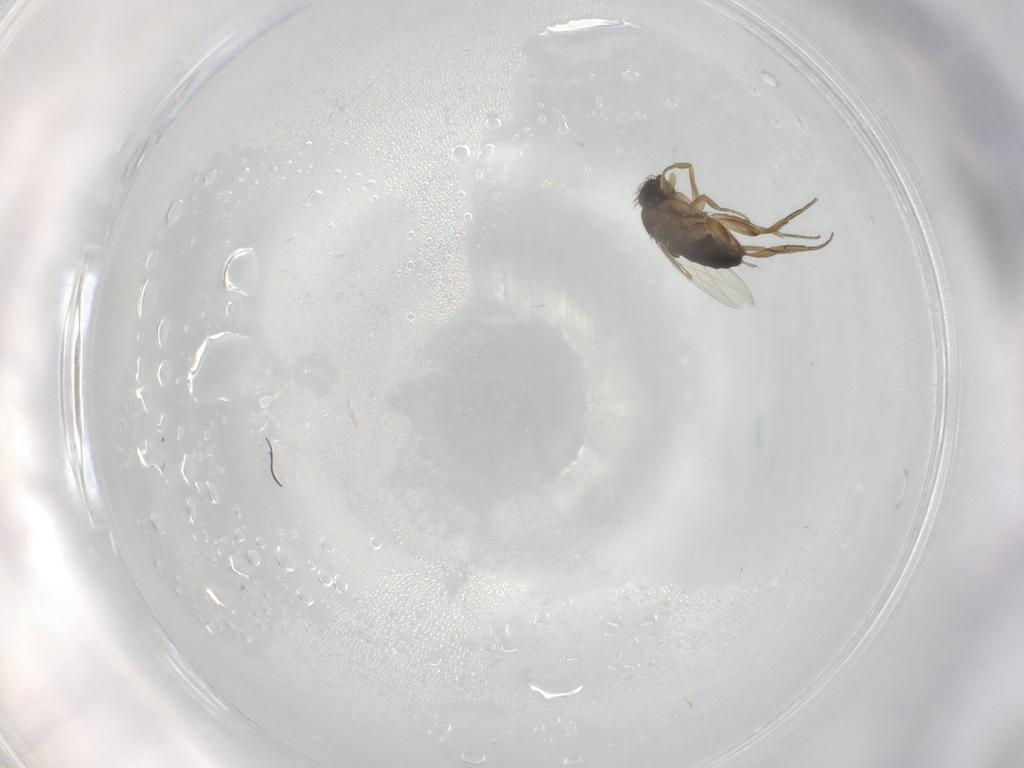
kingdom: Animalia
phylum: Arthropoda
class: Insecta
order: Diptera
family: Phoridae
